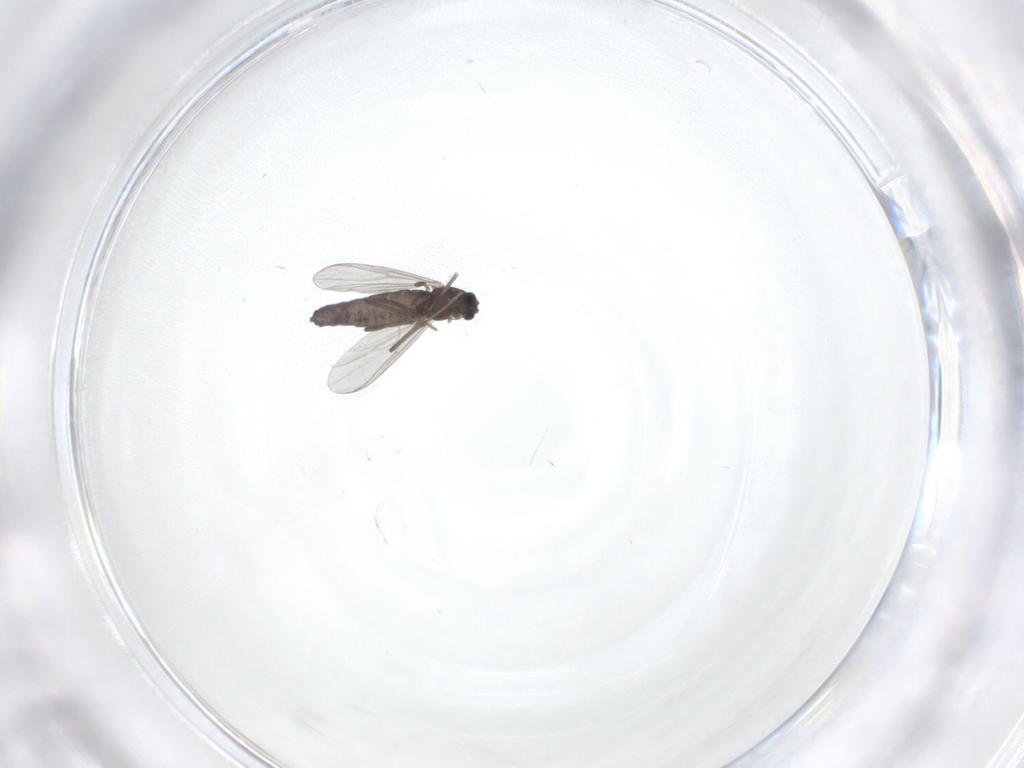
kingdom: Animalia
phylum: Arthropoda
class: Insecta
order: Diptera
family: Chironomidae
